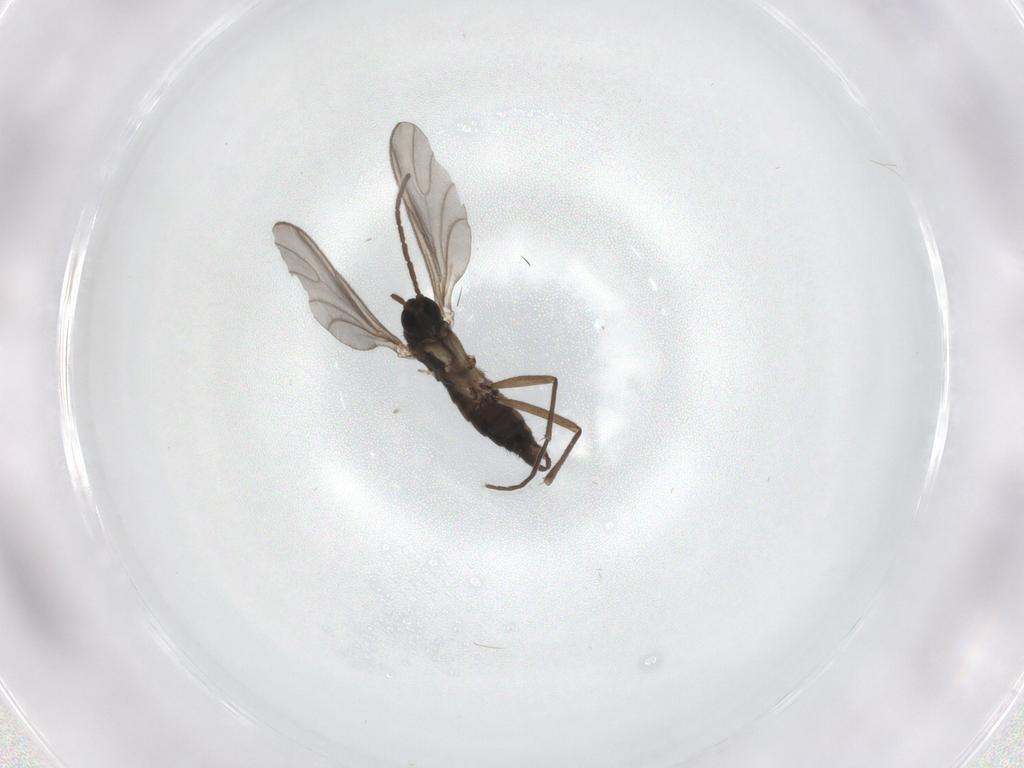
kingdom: Animalia
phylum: Arthropoda
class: Insecta
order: Diptera
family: Sciaridae
